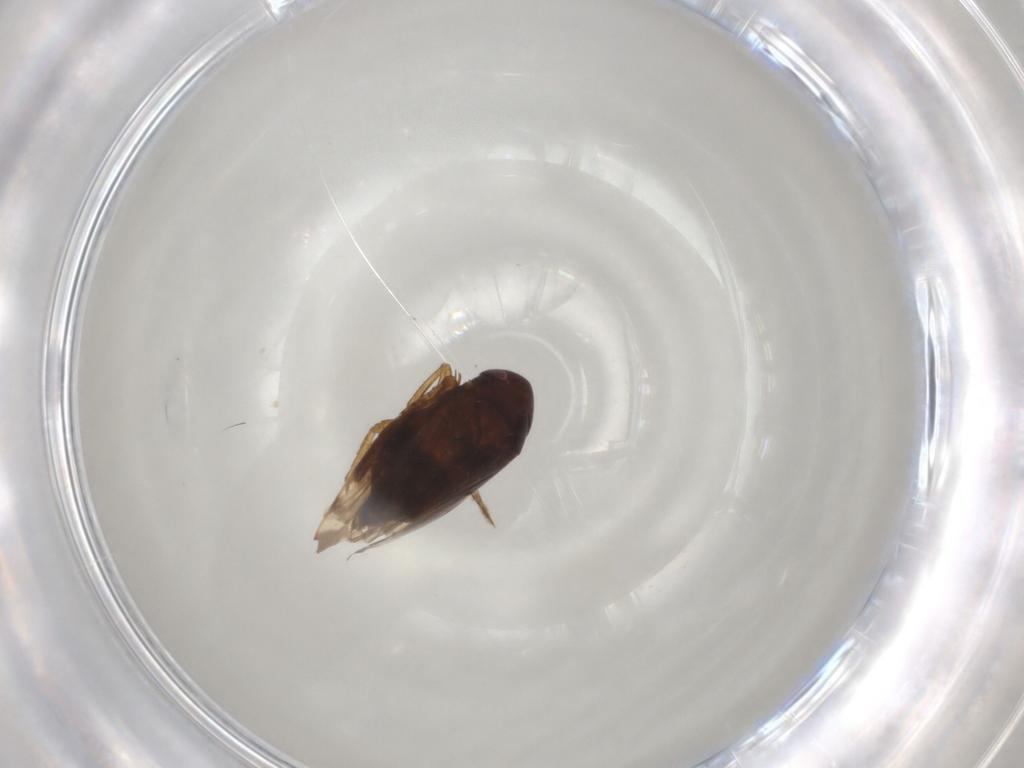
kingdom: Animalia
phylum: Arthropoda
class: Insecta
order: Hemiptera
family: Cicadellidae
